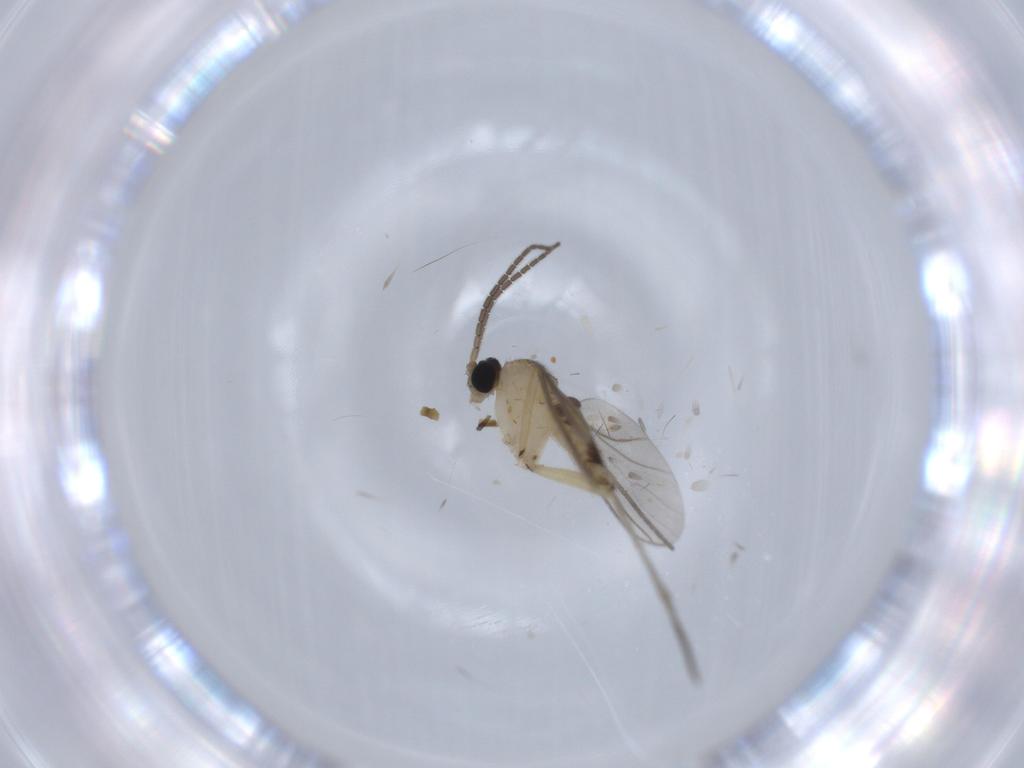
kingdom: Animalia
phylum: Arthropoda
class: Insecta
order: Diptera
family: Sciaridae
